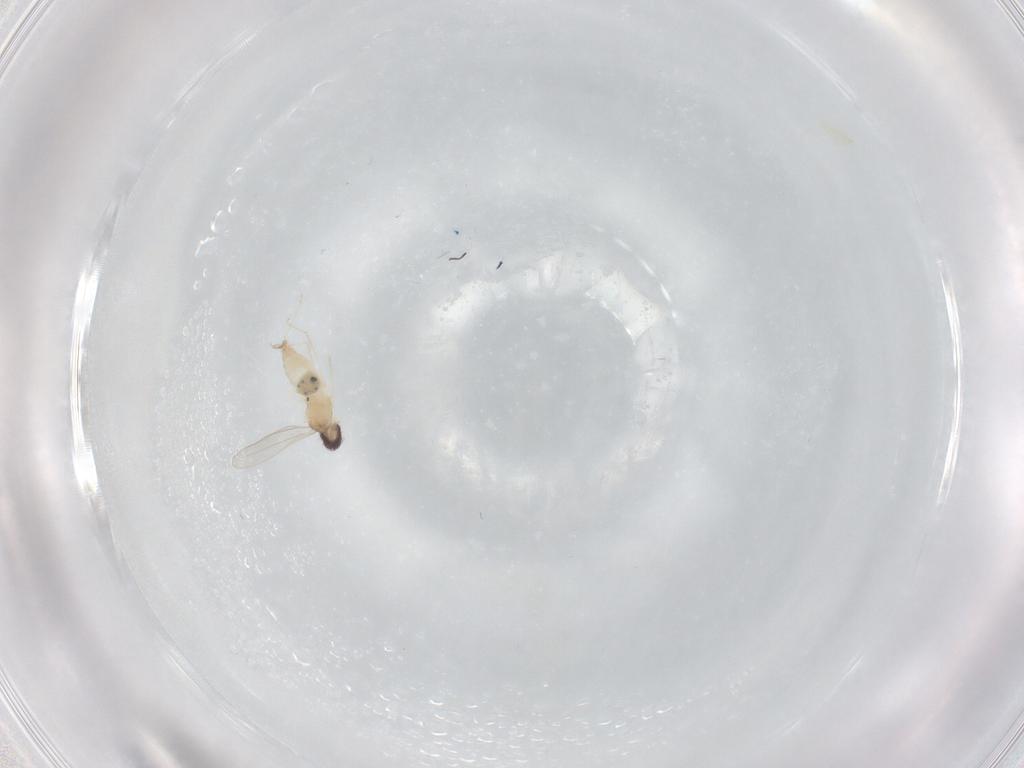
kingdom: Animalia
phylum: Arthropoda
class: Insecta
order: Diptera
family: Cecidomyiidae
